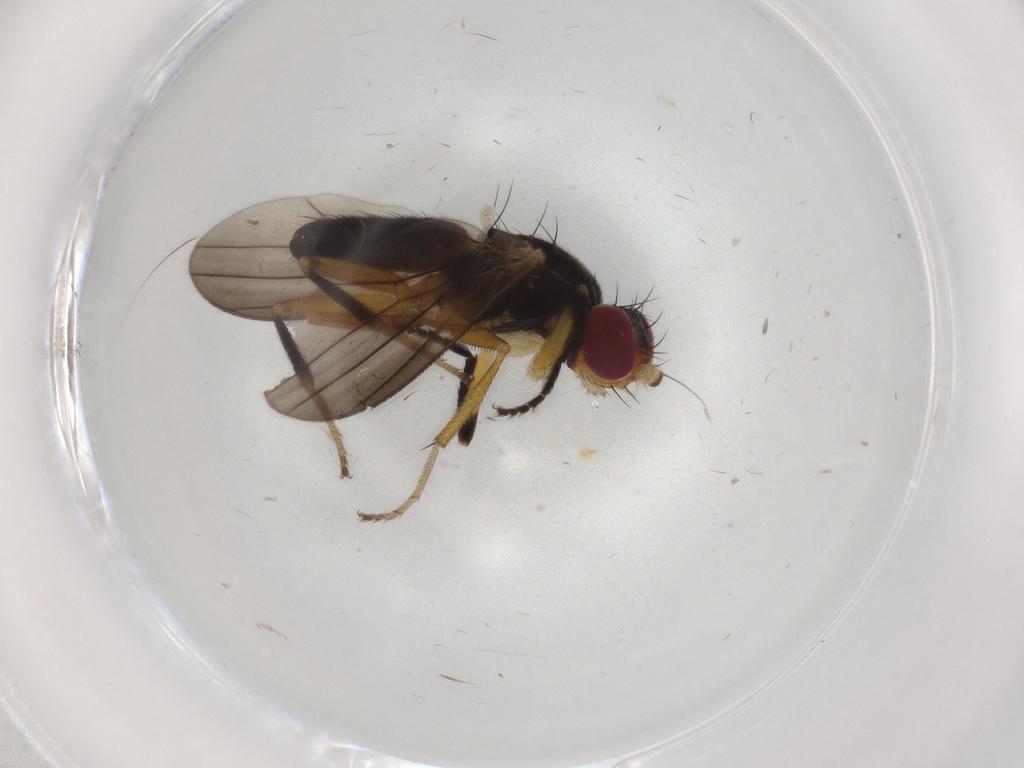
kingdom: Animalia
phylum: Arthropoda
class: Insecta
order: Diptera
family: Clusiidae
